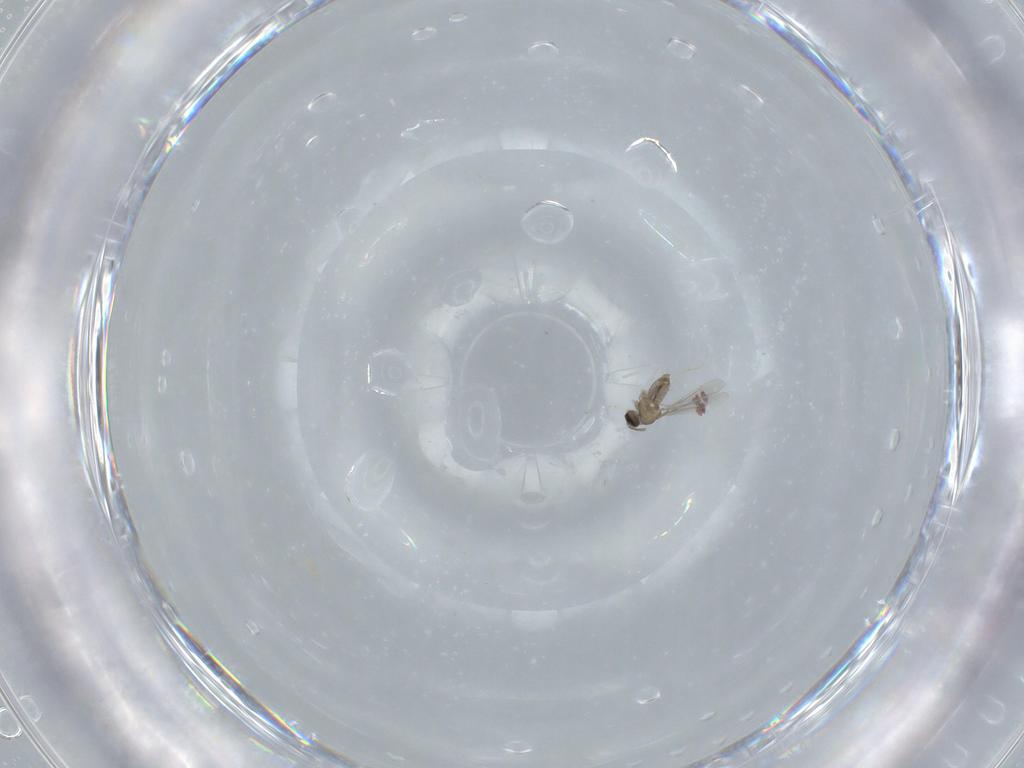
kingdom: Animalia
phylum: Arthropoda
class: Insecta
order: Diptera
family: Cecidomyiidae
